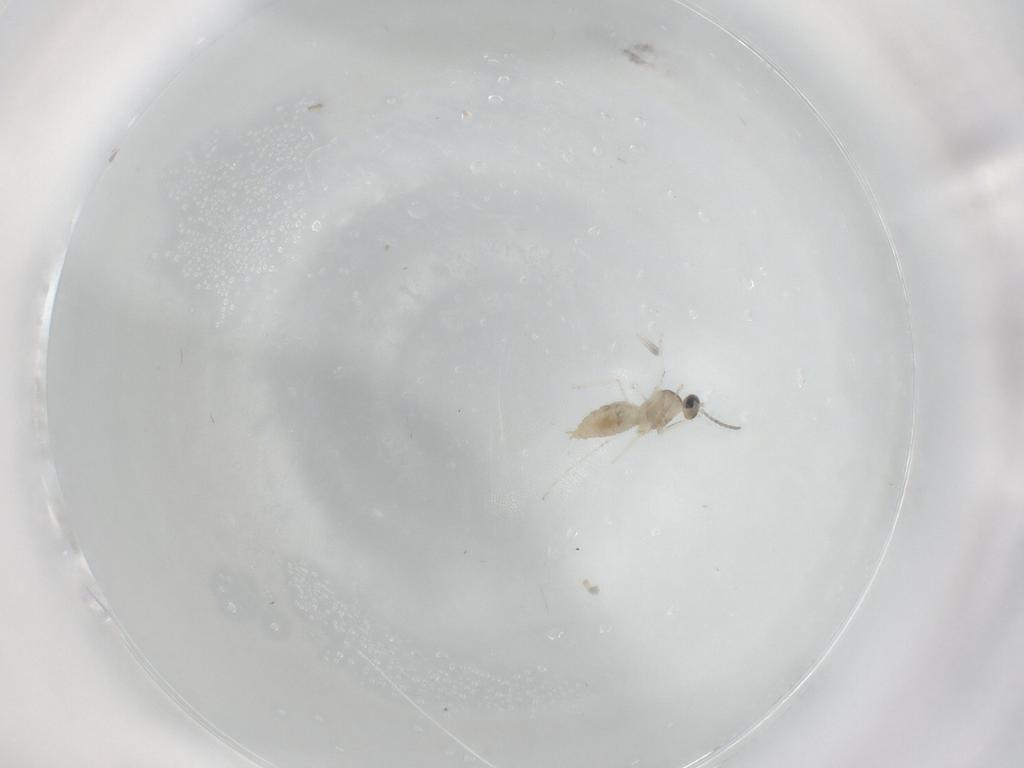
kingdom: Animalia
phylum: Arthropoda
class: Insecta
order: Diptera
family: Cecidomyiidae
